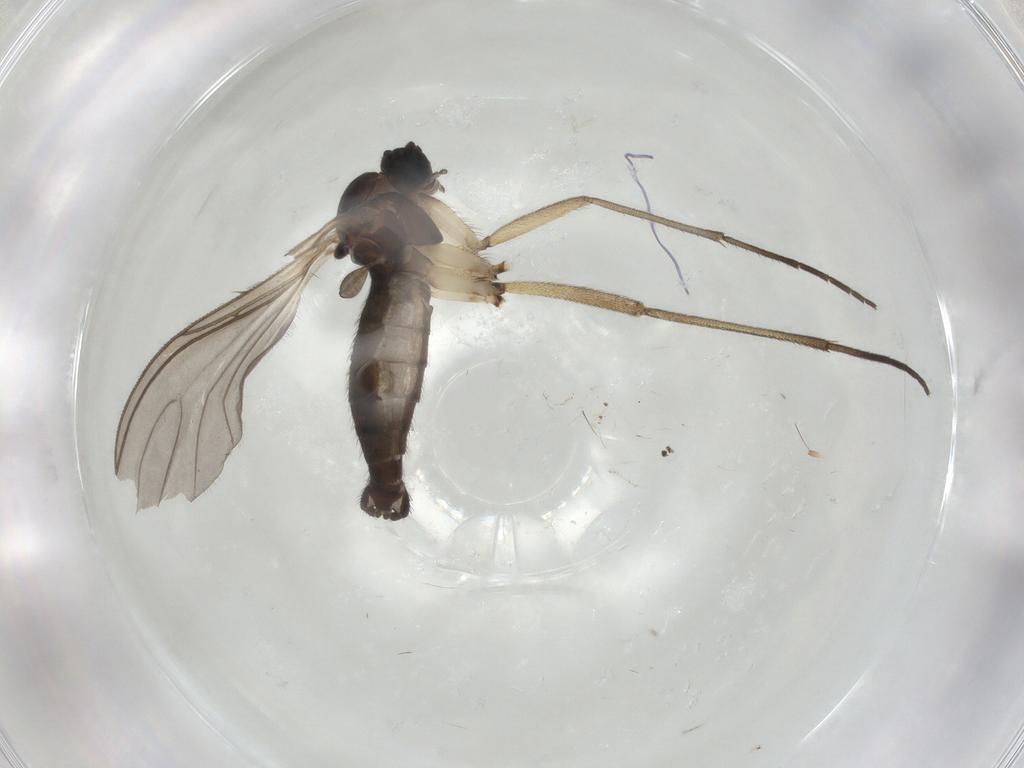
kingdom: Animalia
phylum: Arthropoda
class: Insecta
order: Diptera
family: Sciaridae
